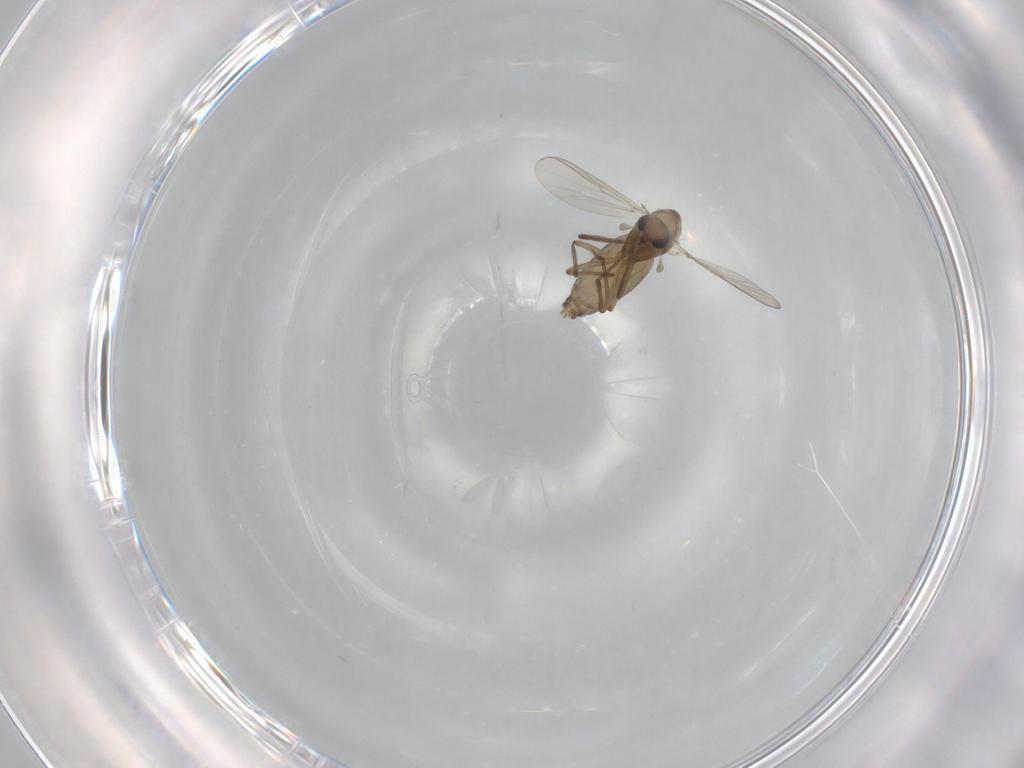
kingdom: Animalia
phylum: Arthropoda
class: Insecta
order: Diptera
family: Chironomidae
